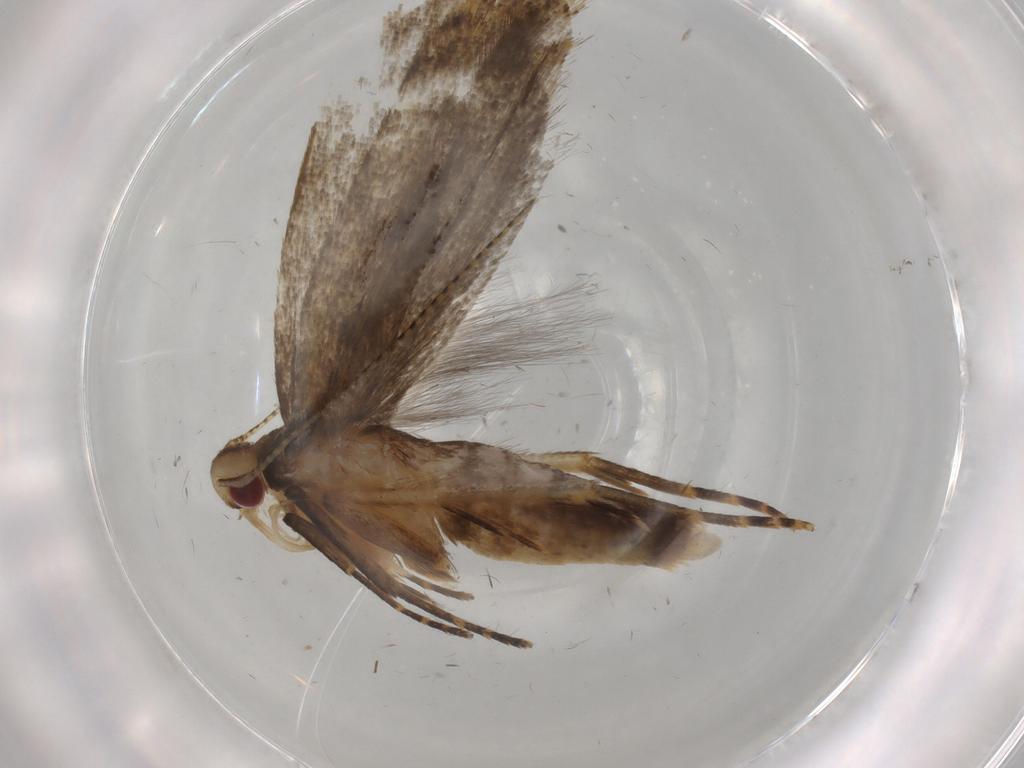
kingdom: Animalia
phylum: Arthropoda
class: Insecta
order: Lepidoptera
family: Gelechiidae
